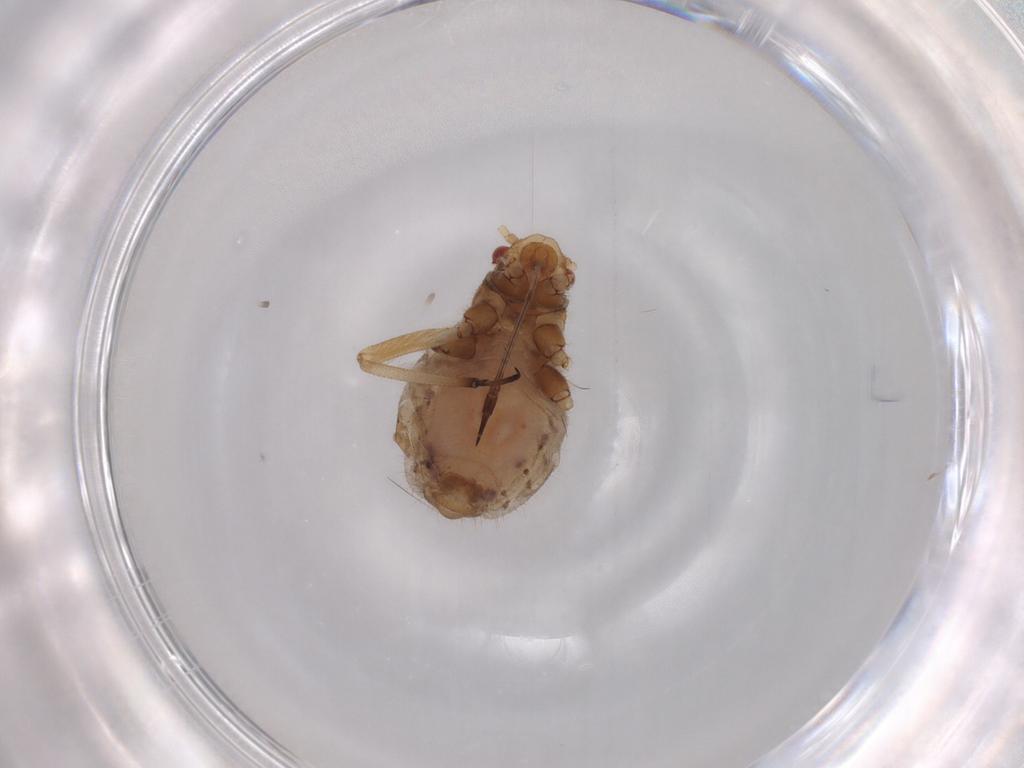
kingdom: Animalia
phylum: Arthropoda
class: Insecta
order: Hemiptera
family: Aphididae
